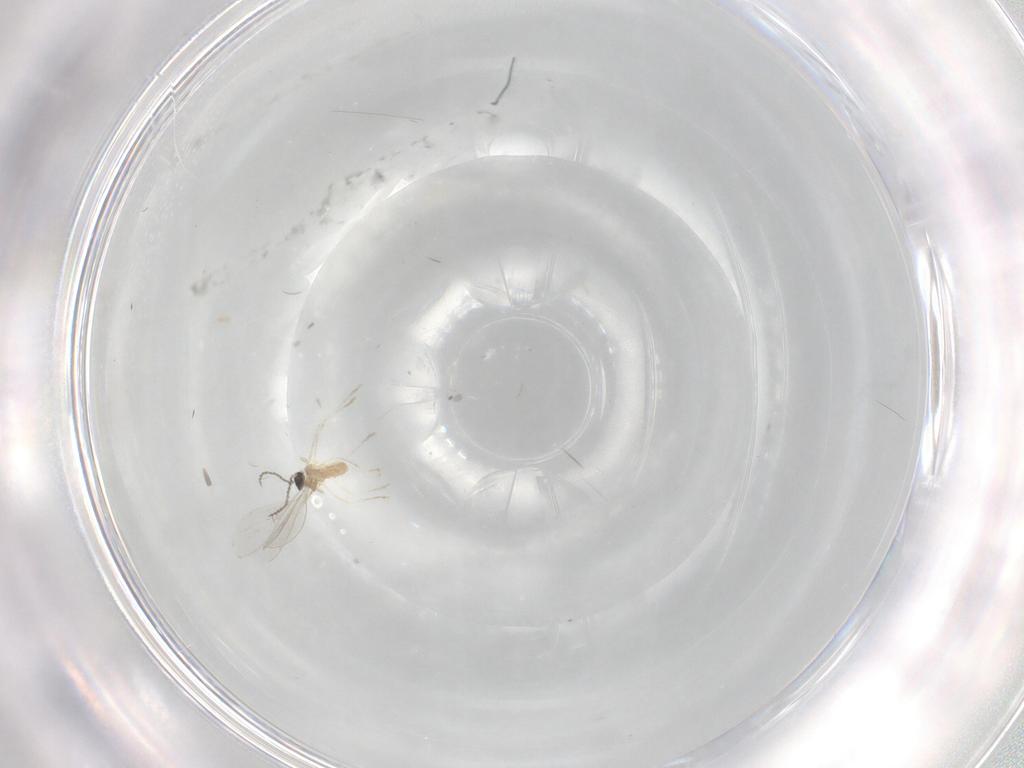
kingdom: Animalia
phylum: Arthropoda
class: Insecta
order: Diptera
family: Cecidomyiidae
